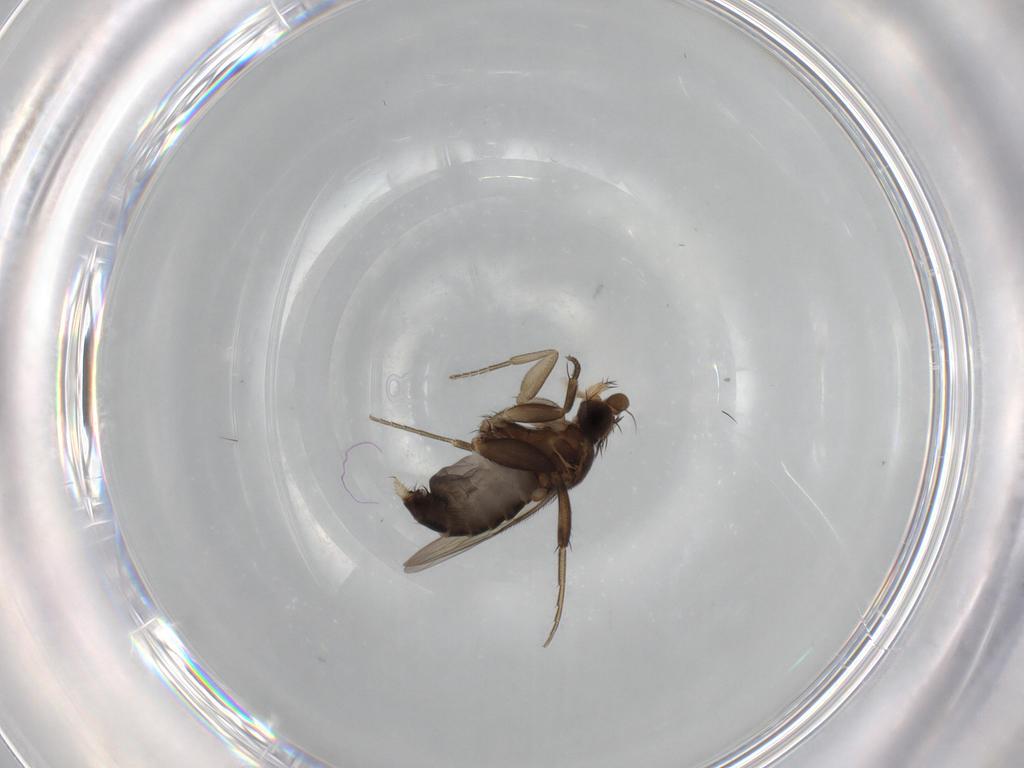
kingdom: Animalia
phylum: Arthropoda
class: Insecta
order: Diptera
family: Phoridae
